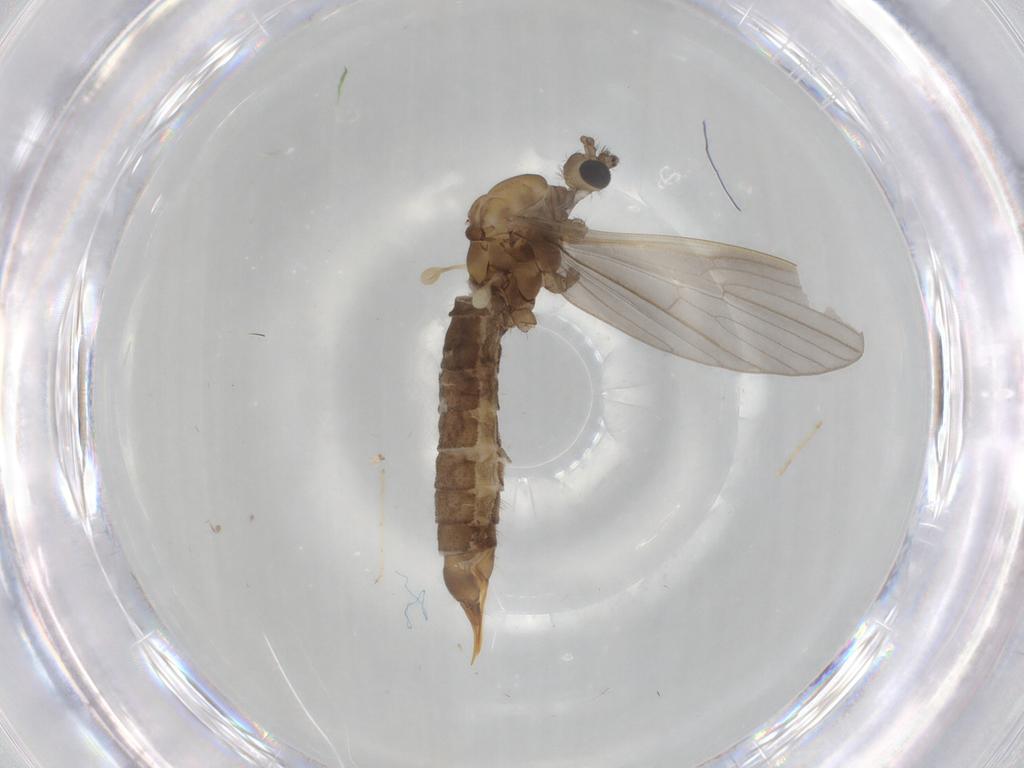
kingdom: Animalia
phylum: Arthropoda
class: Insecta
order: Diptera
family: Limoniidae
